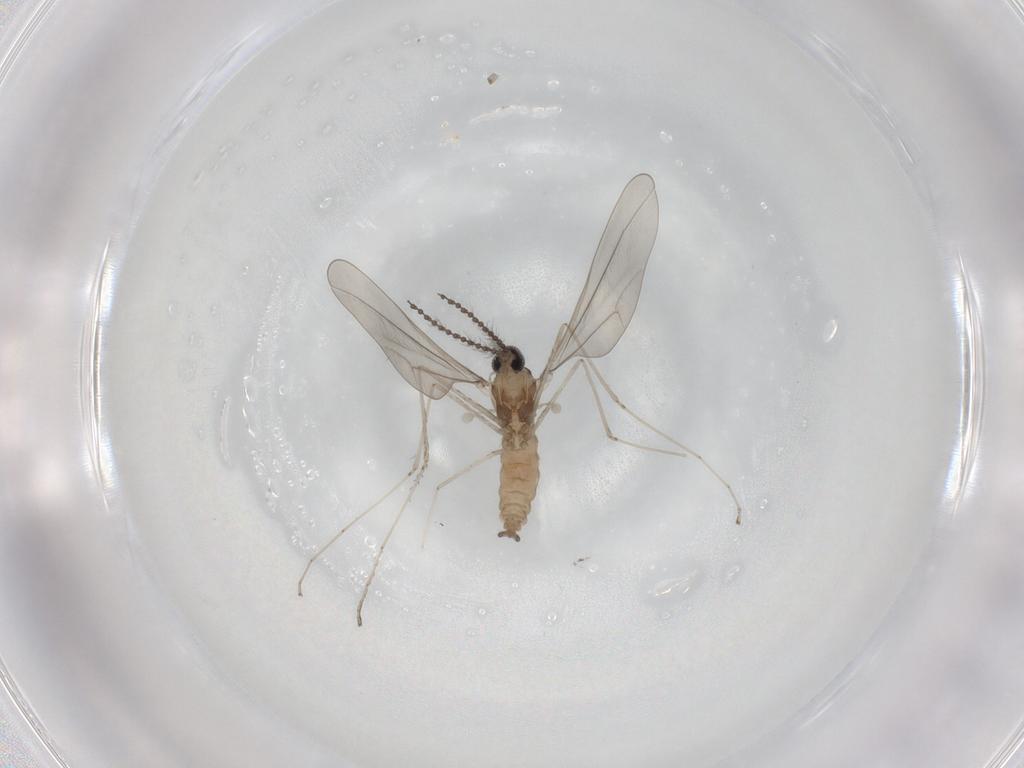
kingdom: Animalia
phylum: Arthropoda
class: Insecta
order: Diptera
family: Cecidomyiidae
